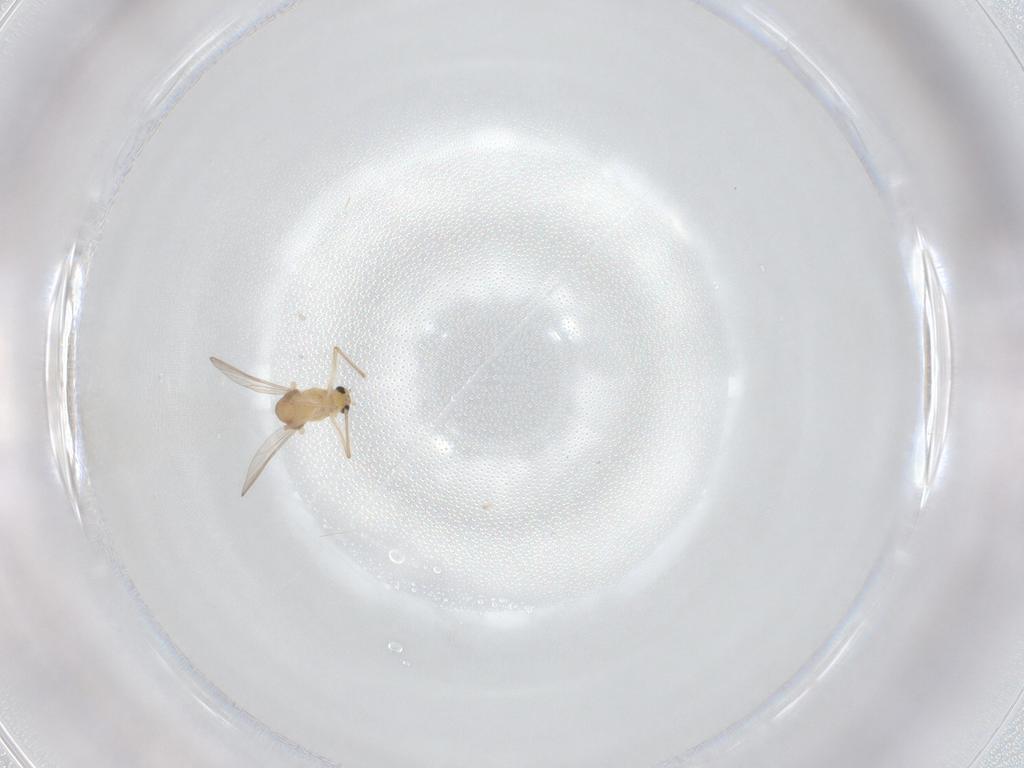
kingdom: Animalia
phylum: Arthropoda
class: Insecta
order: Diptera
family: Chironomidae
